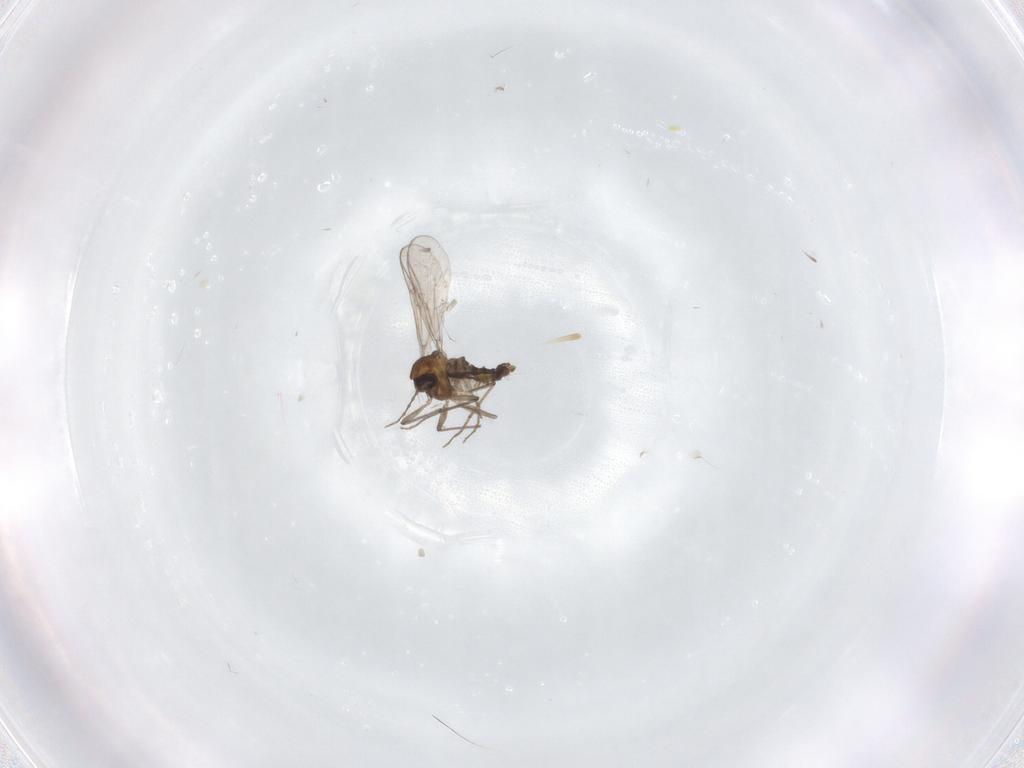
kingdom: Animalia
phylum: Arthropoda
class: Insecta
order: Diptera
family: Chironomidae
